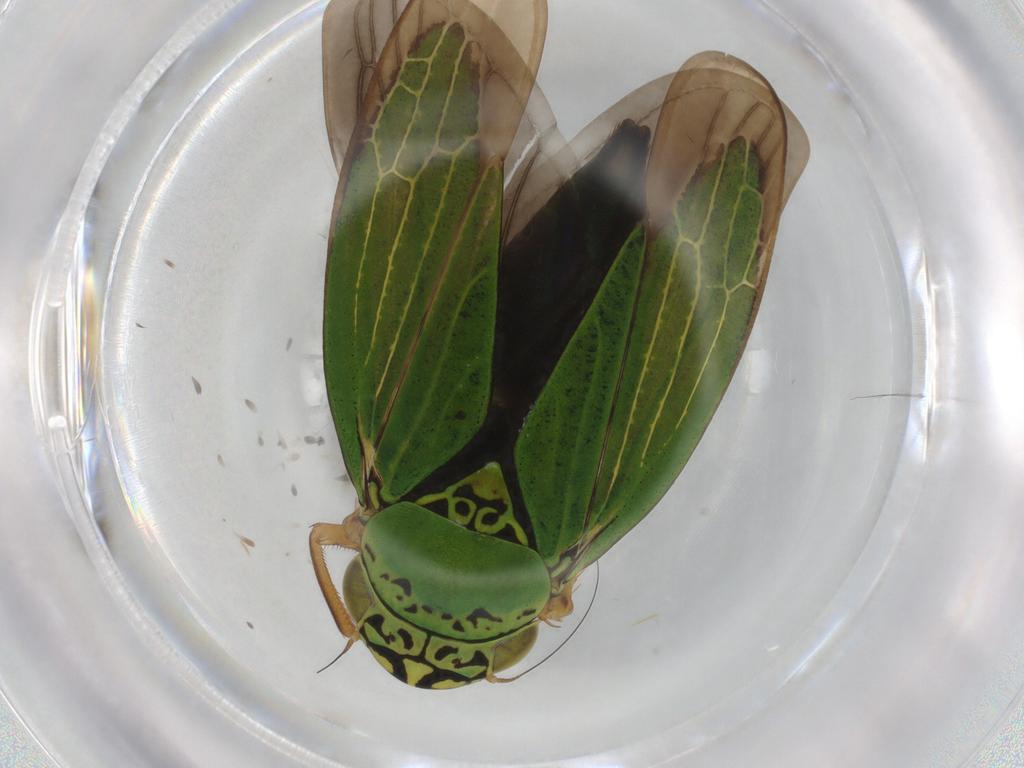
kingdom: Animalia
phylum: Arthropoda
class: Insecta
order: Hemiptera
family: Cicadellidae
